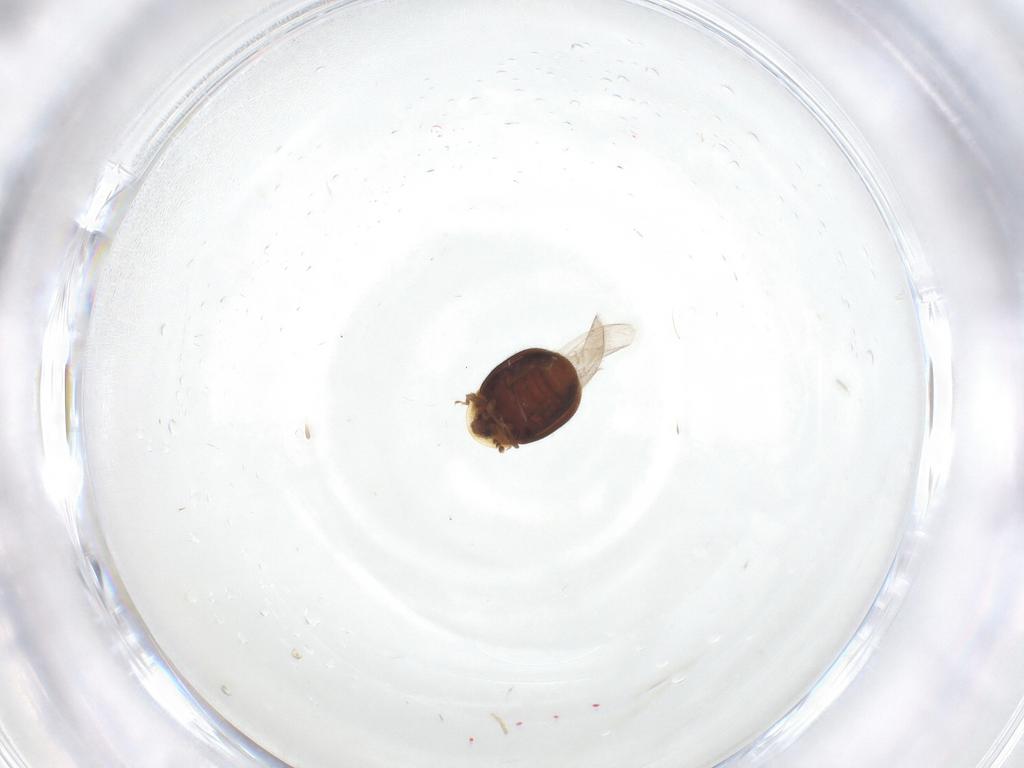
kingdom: Animalia
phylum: Arthropoda
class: Insecta
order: Coleoptera
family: Corylophidae
